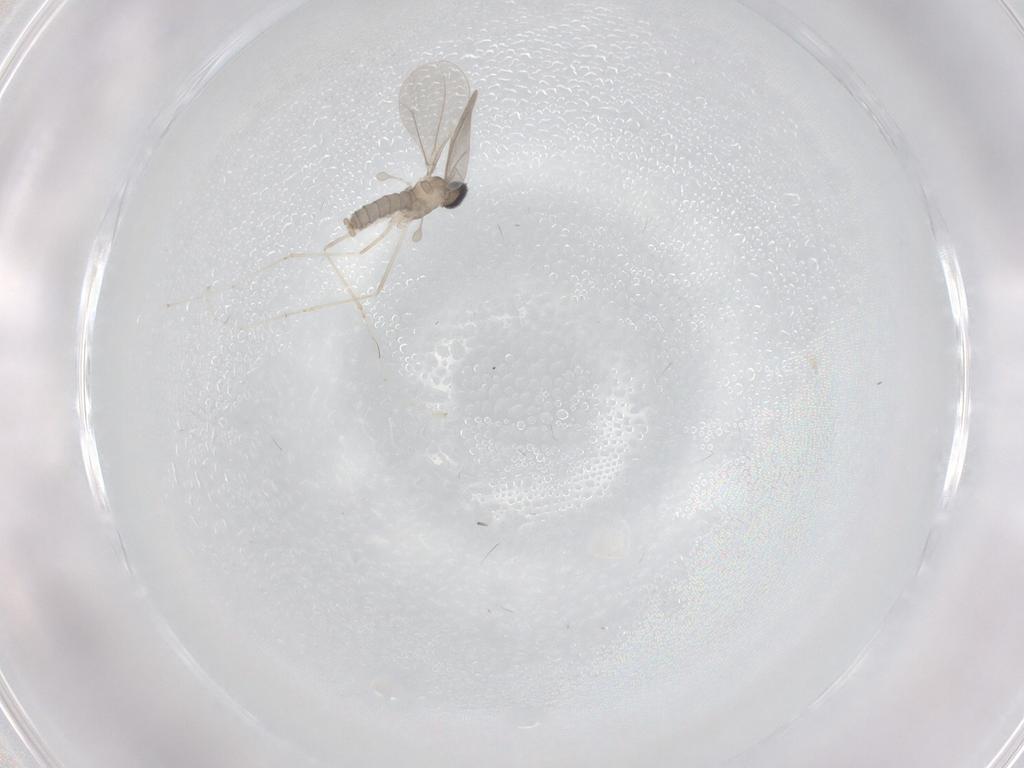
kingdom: Animalia
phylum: Arthropoda
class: Insecta
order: Diptera
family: Cecidomyiidae
